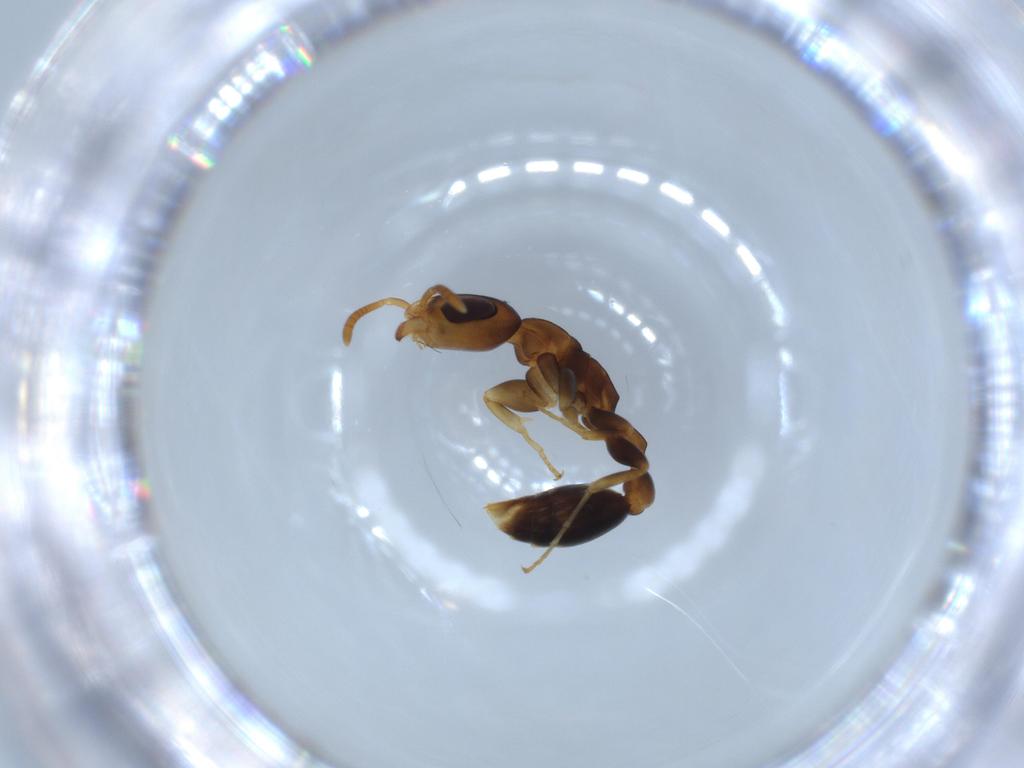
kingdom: Animalia
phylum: Arthropoda
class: Insecta
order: Hymenoptera
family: Formicidae
